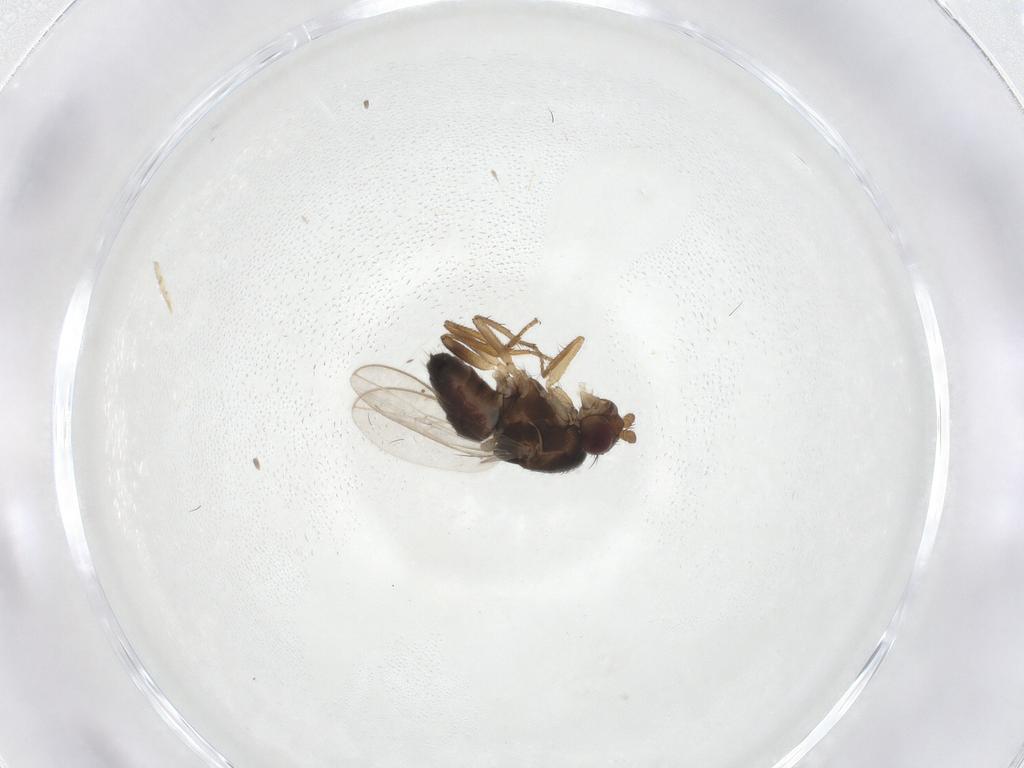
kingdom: Animalia
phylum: Arthropoda
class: Insecta
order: Diptera
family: Sphaeroceridae
